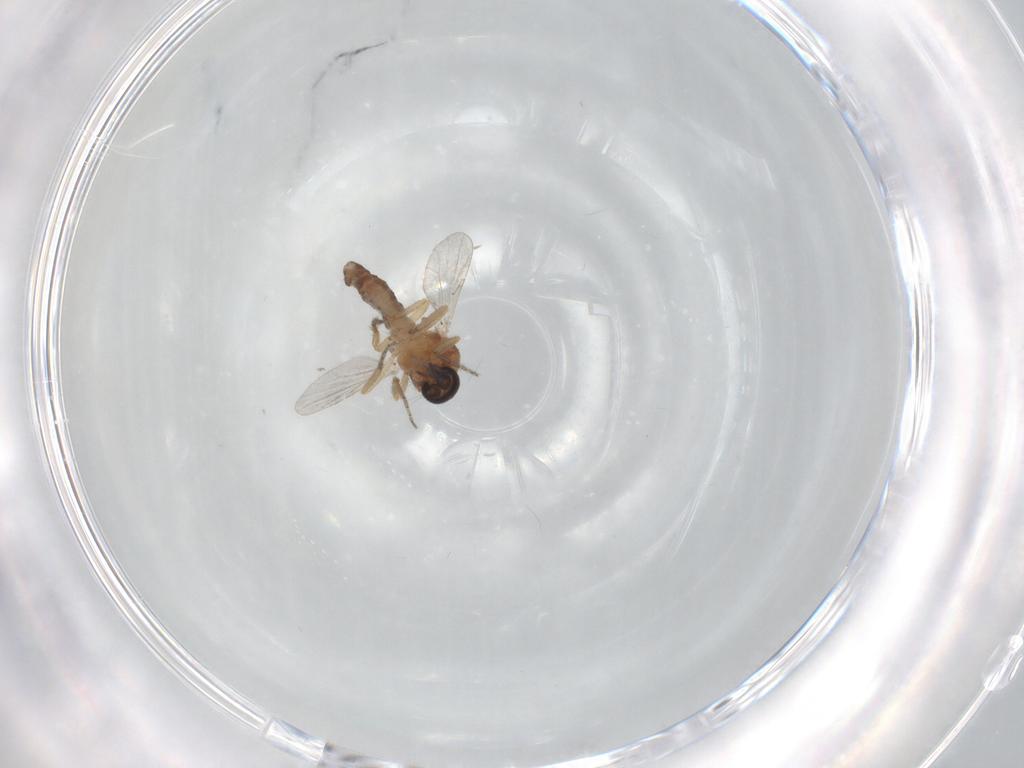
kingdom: Animalia
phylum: Arthropoda
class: Insecta
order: Diptera
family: Ceratopogonidae
